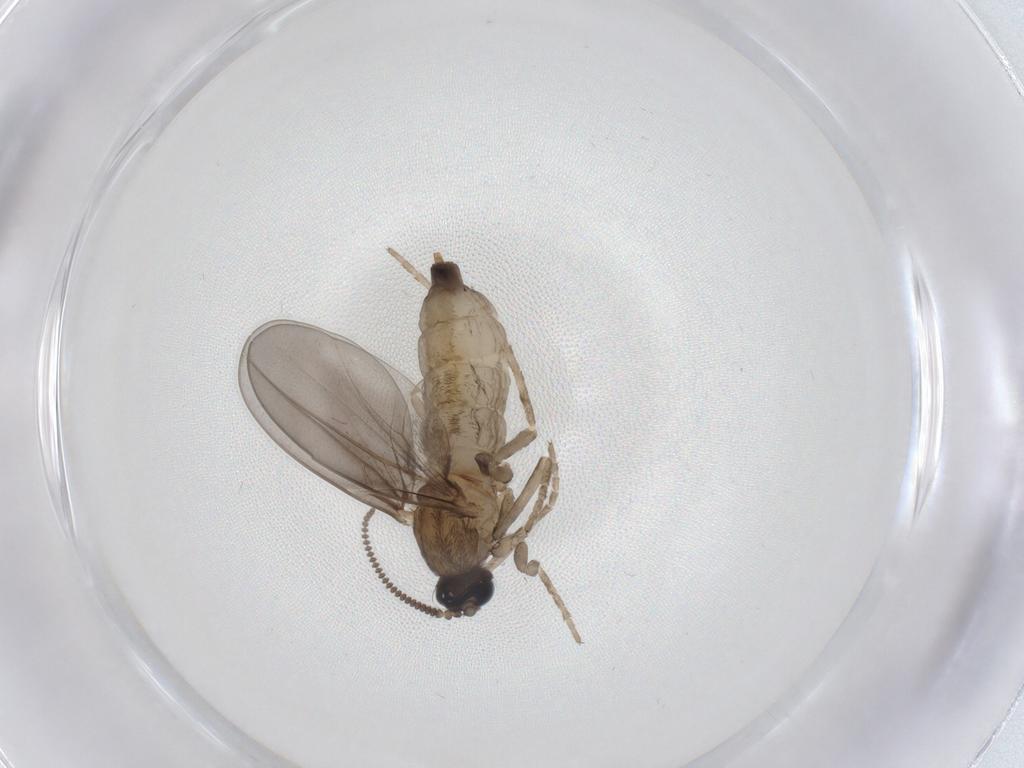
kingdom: Animalia
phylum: Arthropoda
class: Insecta
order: Diptera
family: Cecidomyiidae
